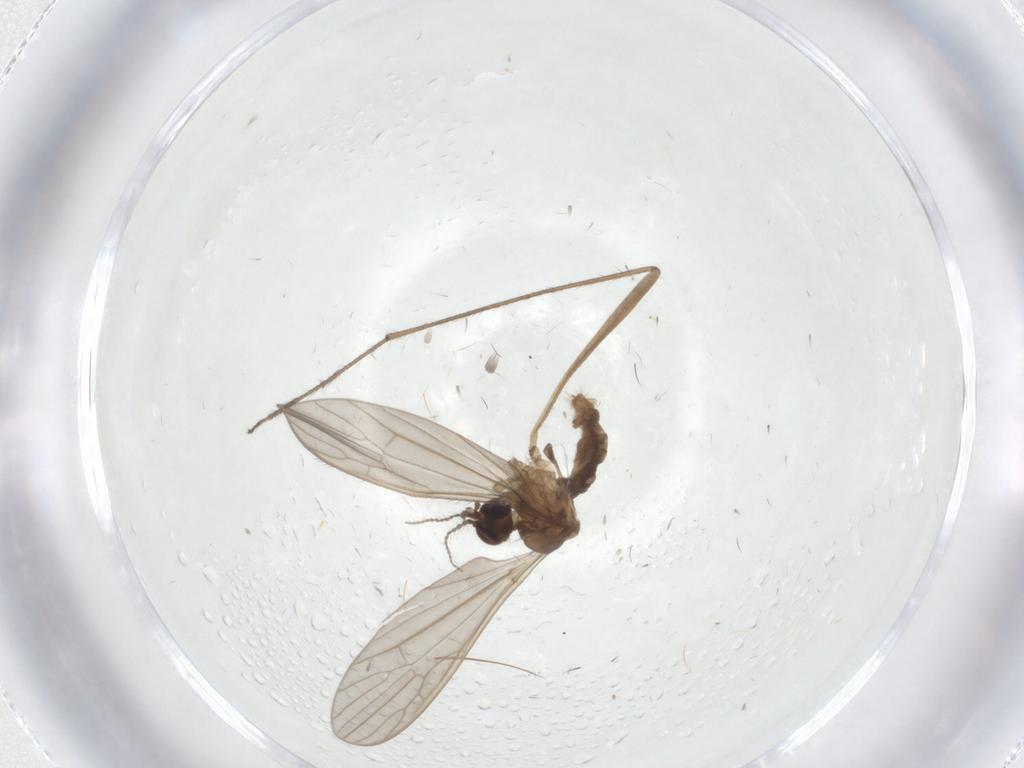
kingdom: Animalia
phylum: Arthropoda
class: Insecta
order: Diptera
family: Limoniidae
